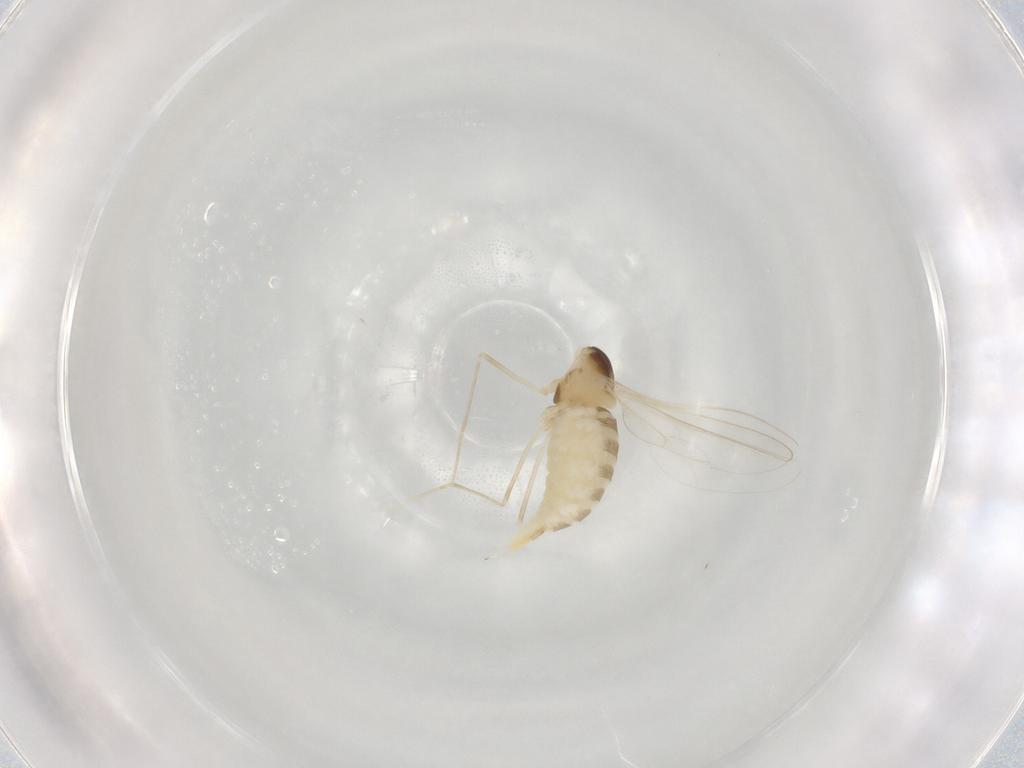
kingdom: Animalia
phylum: Arthropoda
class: Insecta
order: Diptera
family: Cecidomyiidae
